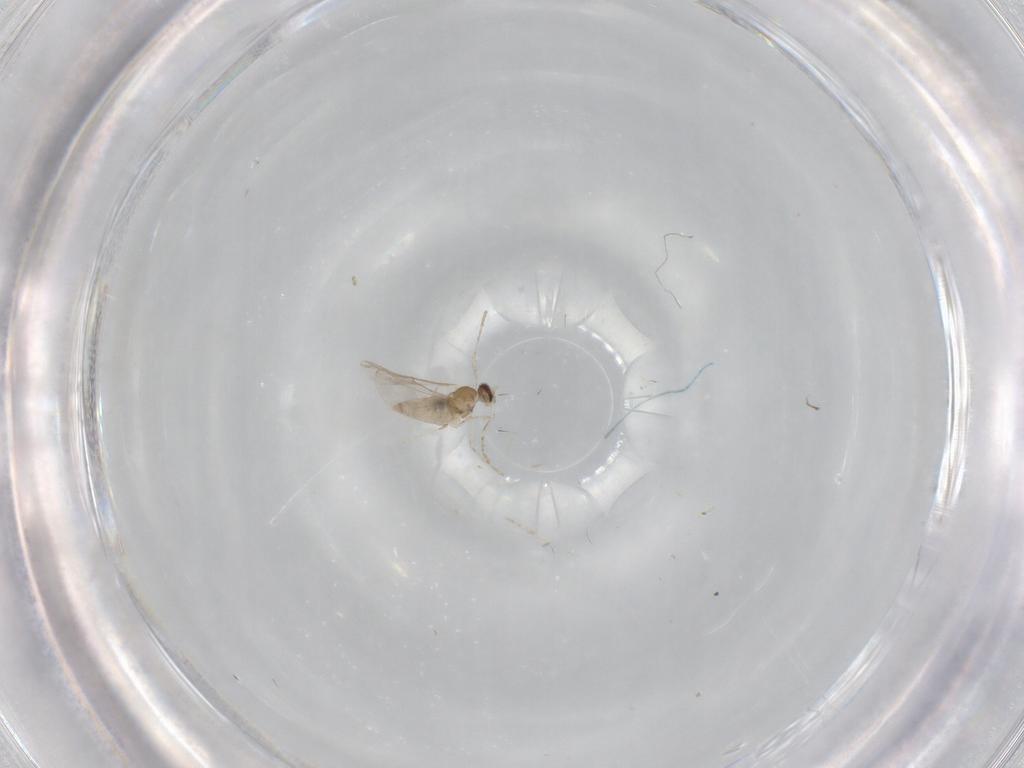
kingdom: Animalia
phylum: Arthropoda
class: Insecta
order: Diptera
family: Cecidomyiidae
